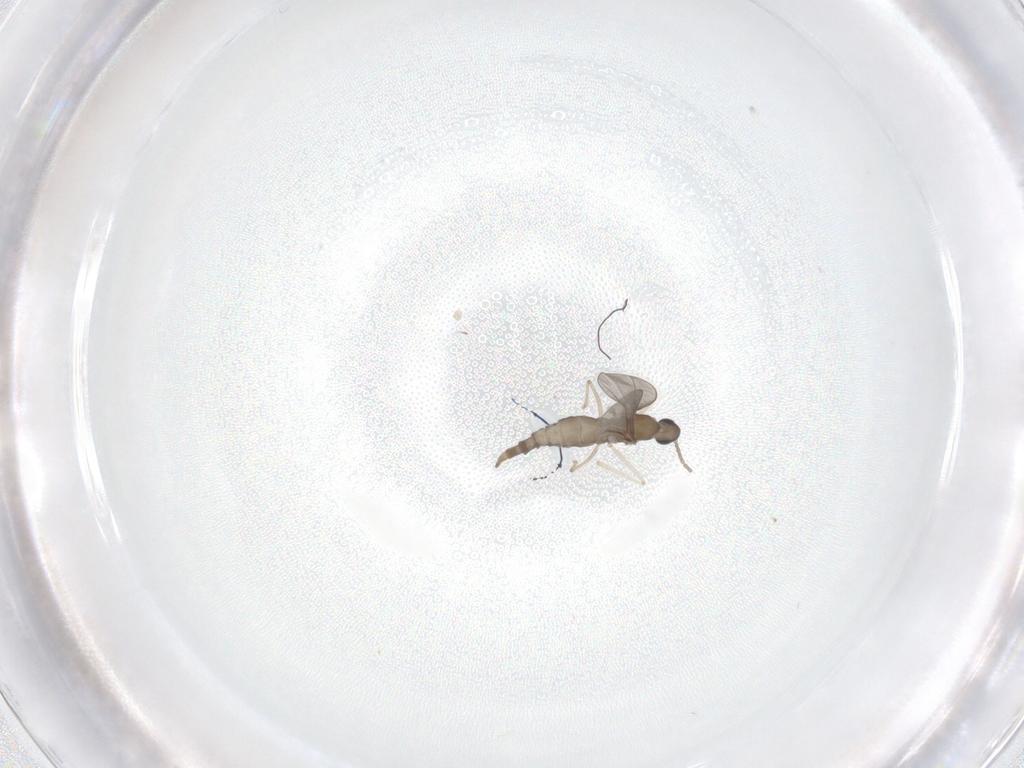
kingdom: Animalia
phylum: Arthropoda
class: Insecta
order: Diptera
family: Cecidomyiidae
